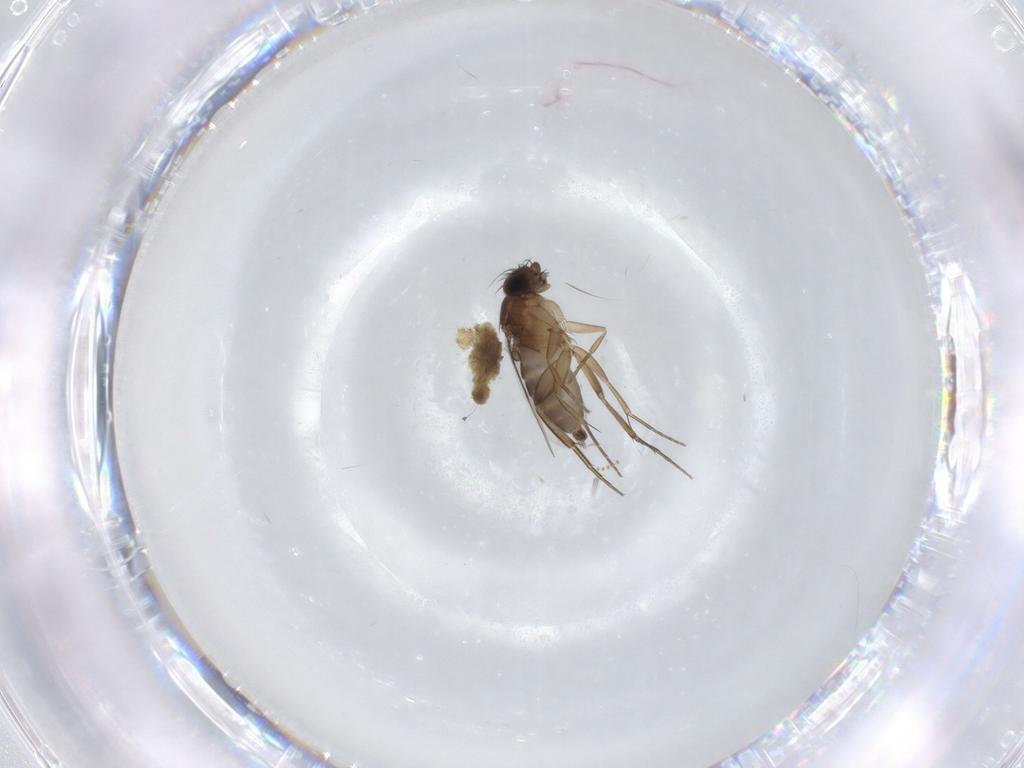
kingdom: Animalia
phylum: Arthropoda
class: Insecta
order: Diptera
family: Phoridae
